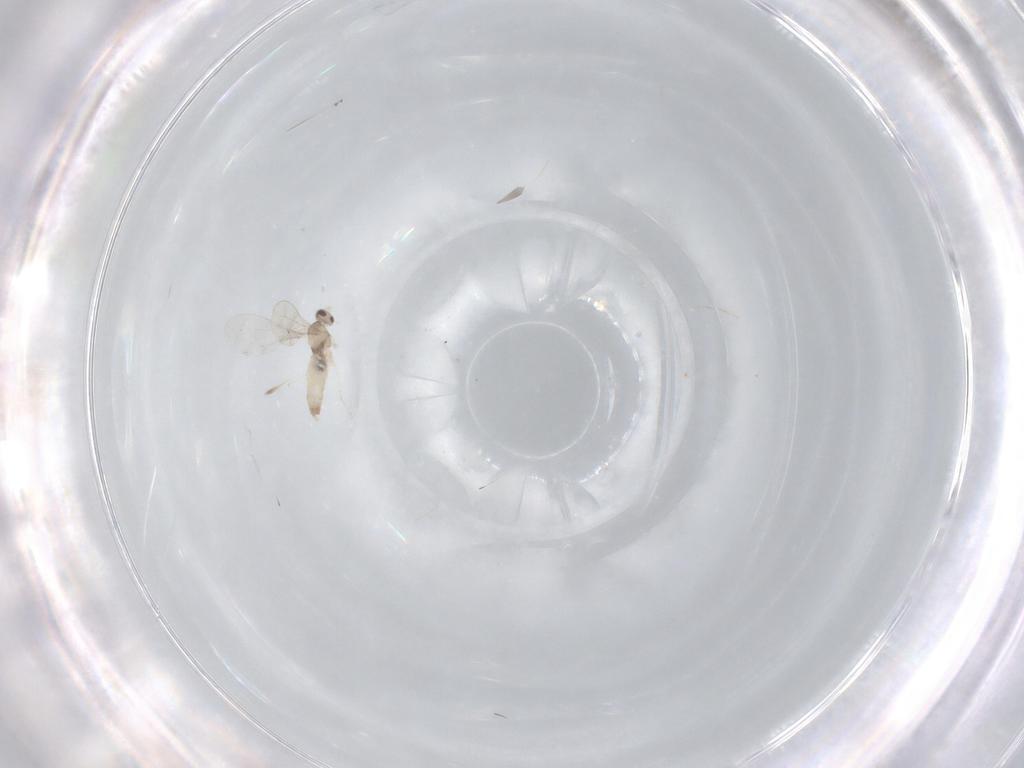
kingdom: Animalia
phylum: Arthropoda
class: Insecta
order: Diptera
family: Cecidomyiidae
